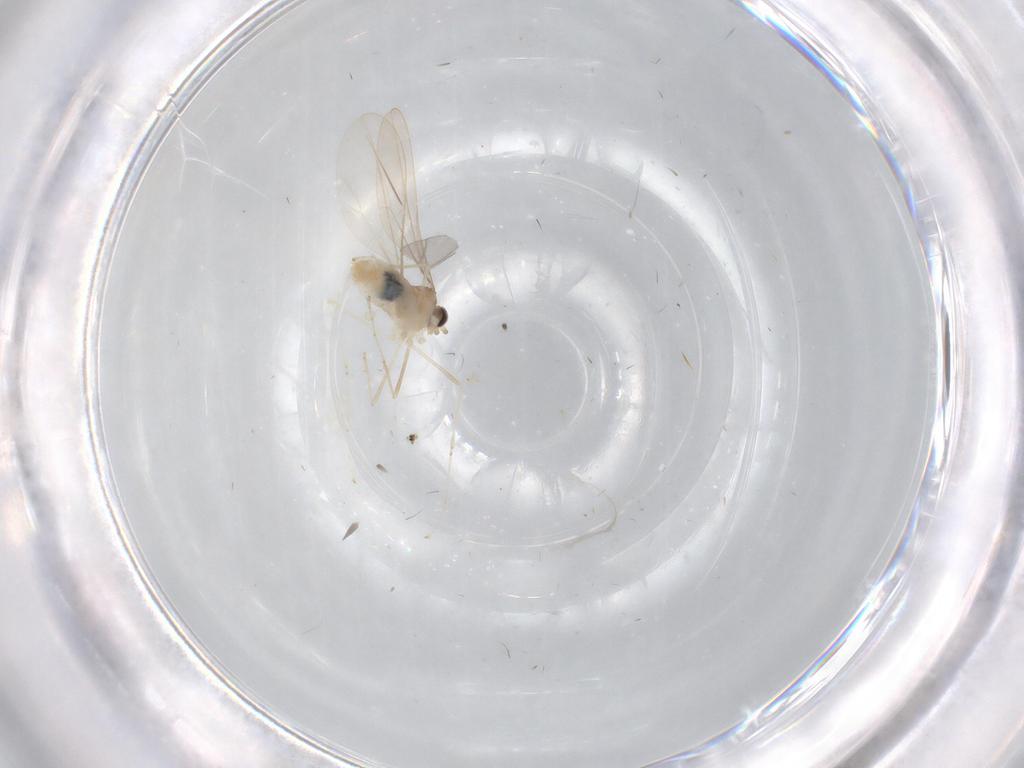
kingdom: Animalia
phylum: Arthropoda
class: Insecta
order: Diptera
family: Cecidomyiidae
